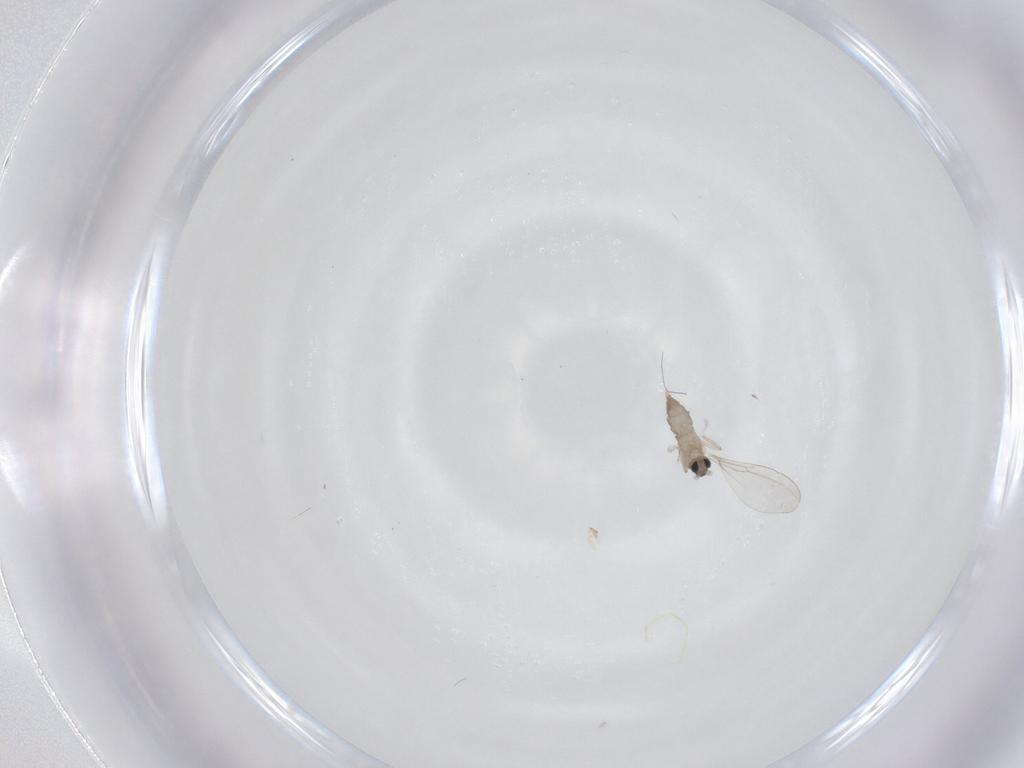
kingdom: Animalia
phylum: Arthropoda
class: Insecta
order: Diptera
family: Cecidomyiidae
